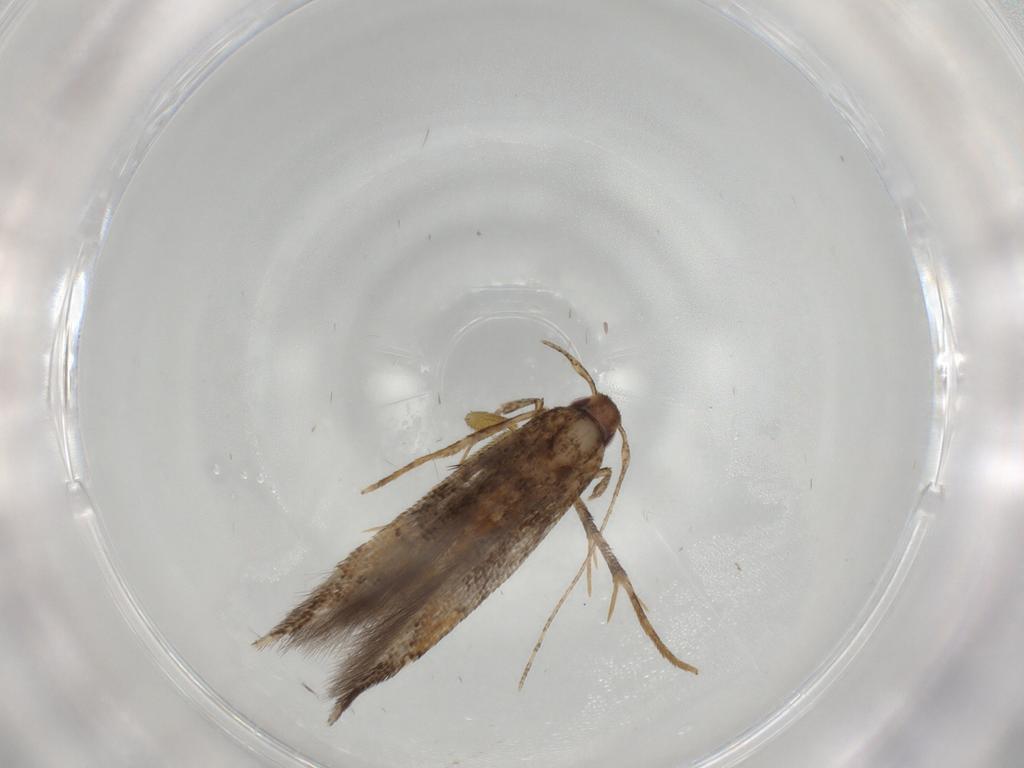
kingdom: Animalia
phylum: Arthropoda
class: Insecta
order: Lepidoptera
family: Cosmopterigidae
